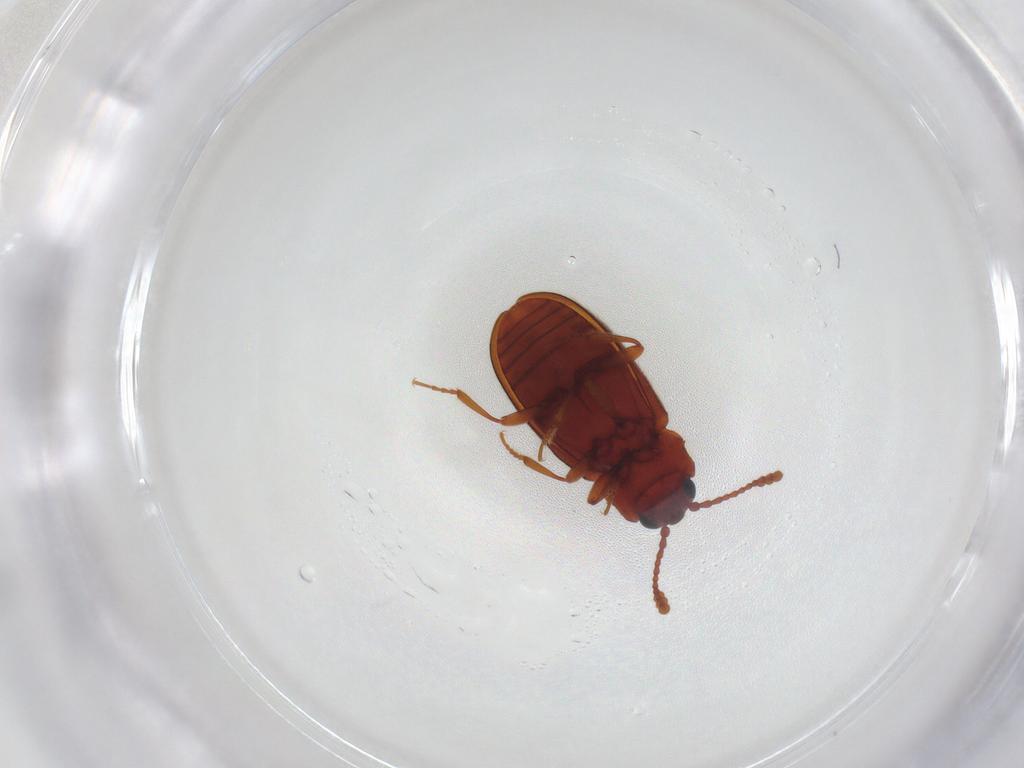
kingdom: Animalia
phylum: Arthropoda
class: Insecta
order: Coleoptera
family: Cryptophagidae
